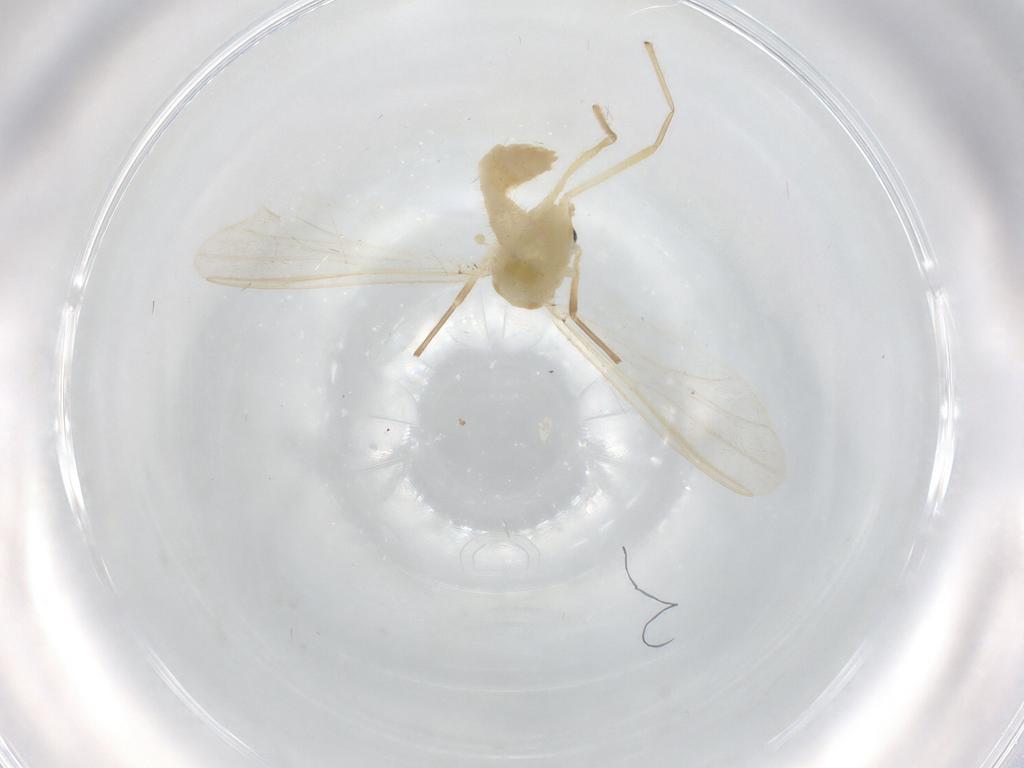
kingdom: Animalia
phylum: Arthropoda
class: Insecta
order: Diptera
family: Chironomidae
